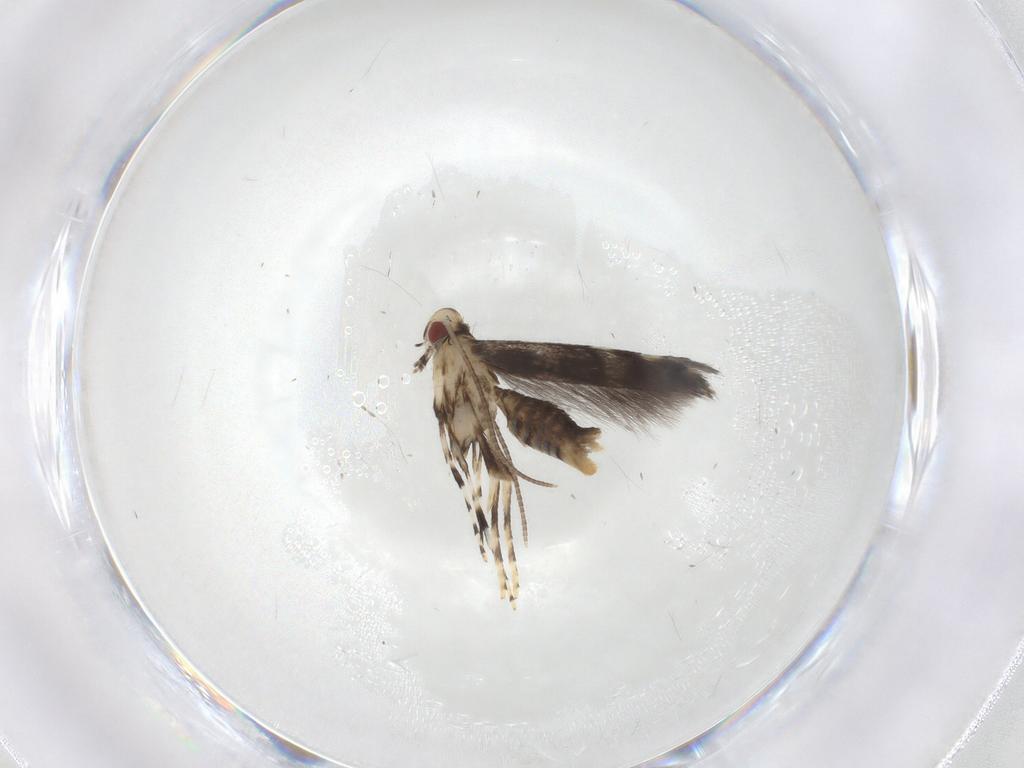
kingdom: Animalia
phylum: Arthropoda
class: Insecta
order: Lepidoptera
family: Gracillariidae
